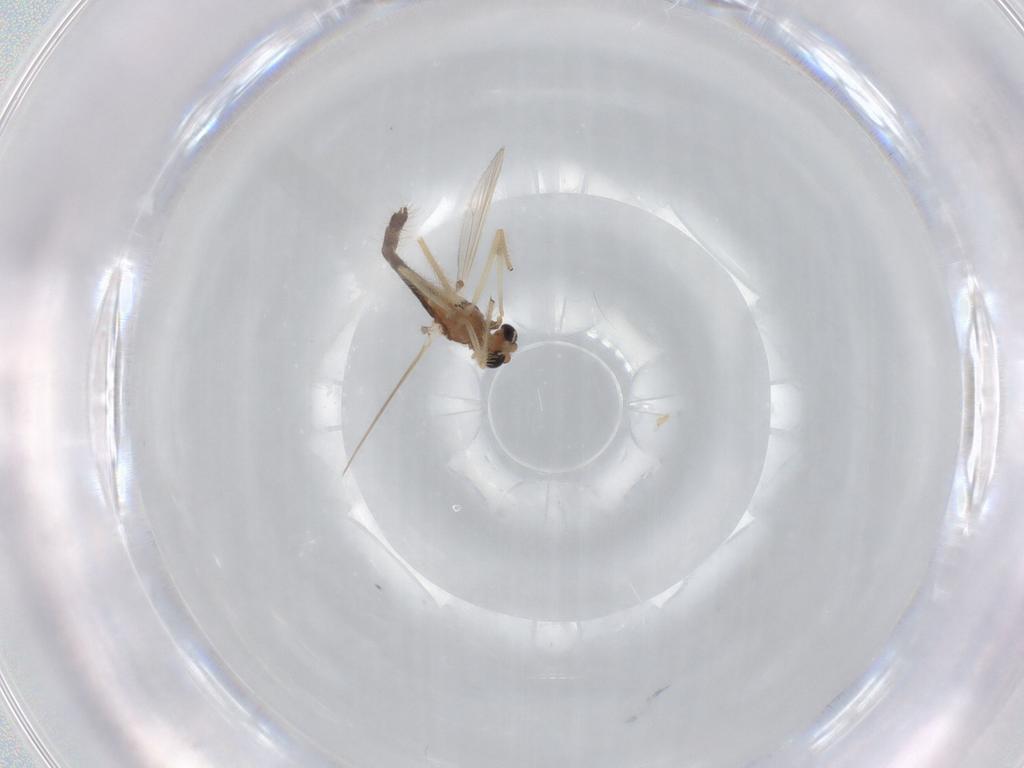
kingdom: Animalia
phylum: Arthropoda
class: Insecta
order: Diptera
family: Chironomidae
